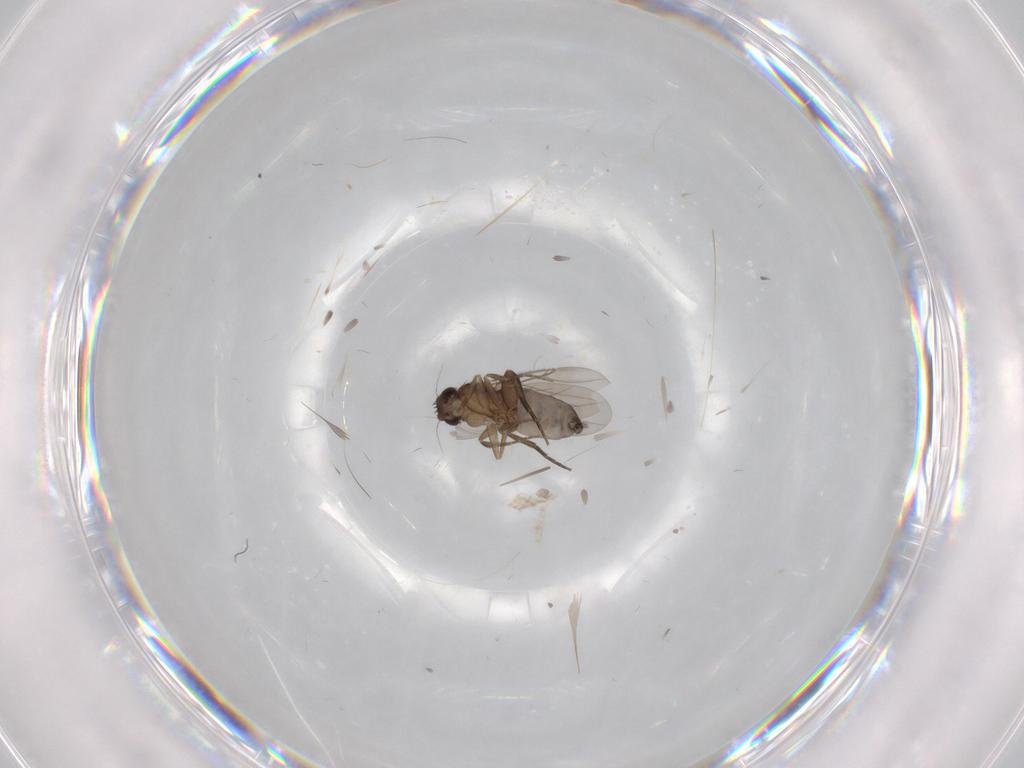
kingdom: Animalia
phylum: Arthropoda
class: Insecta
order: Diptera
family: Phoridae
